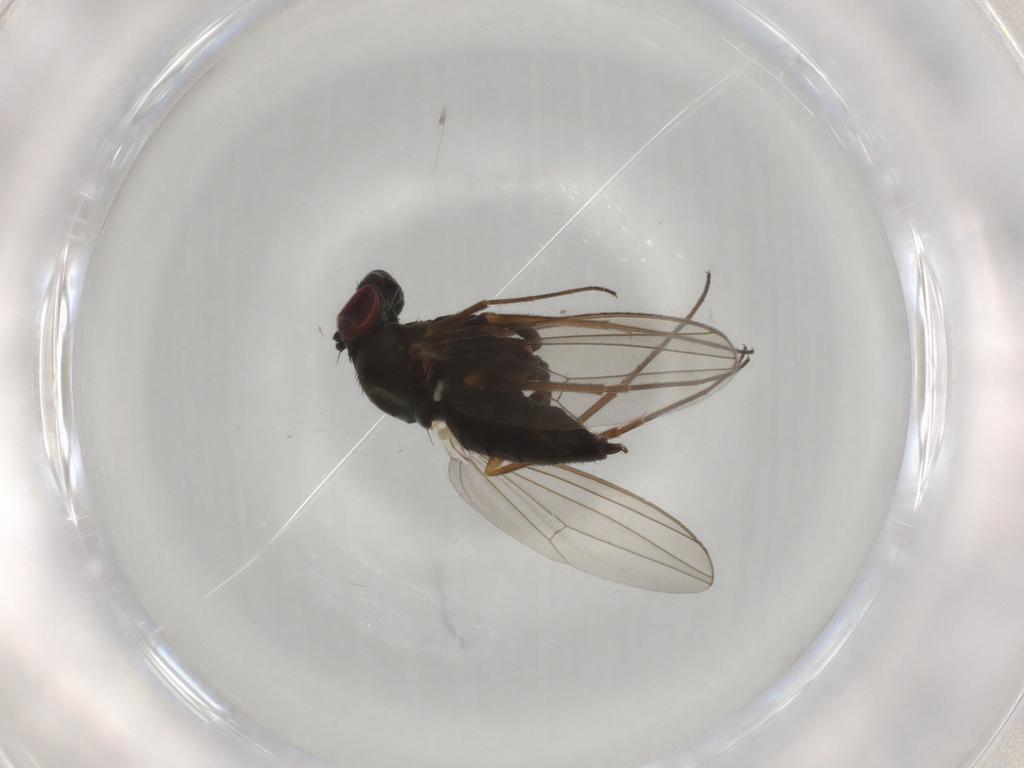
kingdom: Animalia
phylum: Arthropoda
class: Insecta
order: Diptera
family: Dolichopodidae
